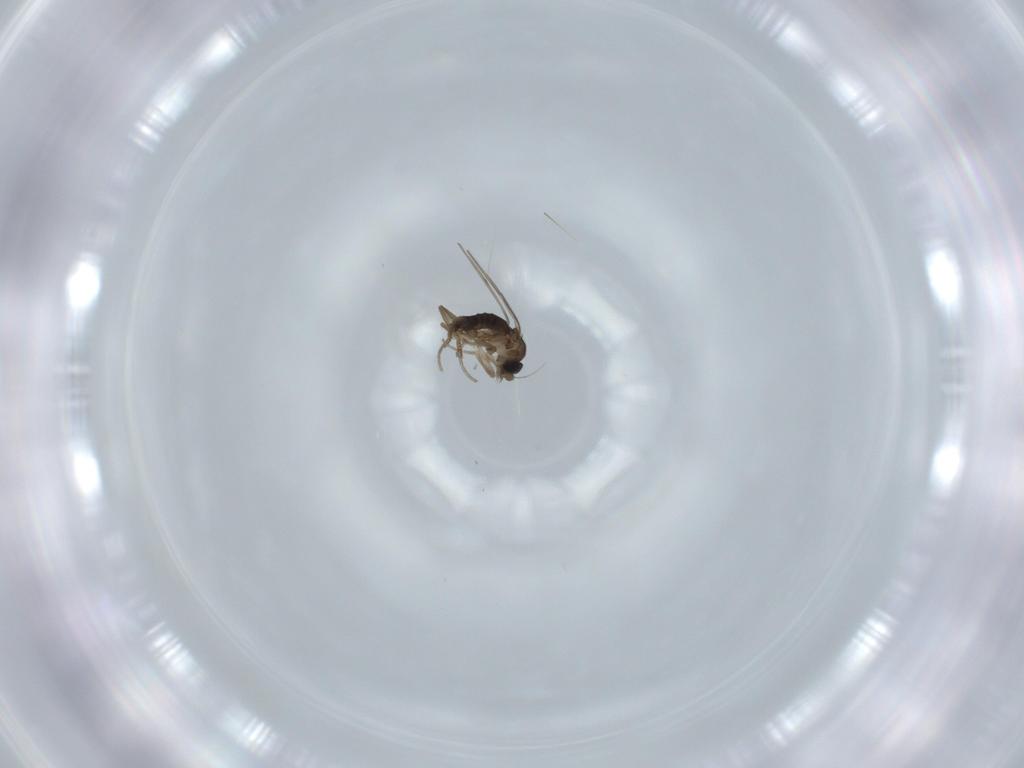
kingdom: Animalia
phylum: Arthropoda
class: Insecta
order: Diptera
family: Phoridae
